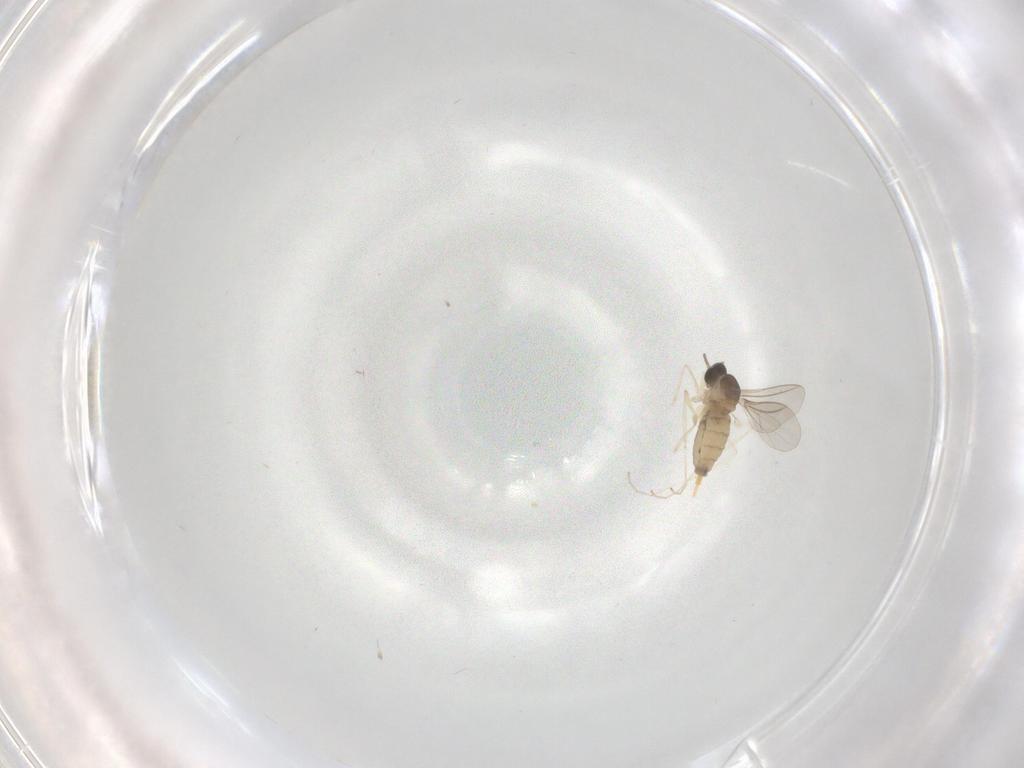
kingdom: Animalia
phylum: Arthropoda
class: Insecta
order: Diptera
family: Cecidomyiidae
